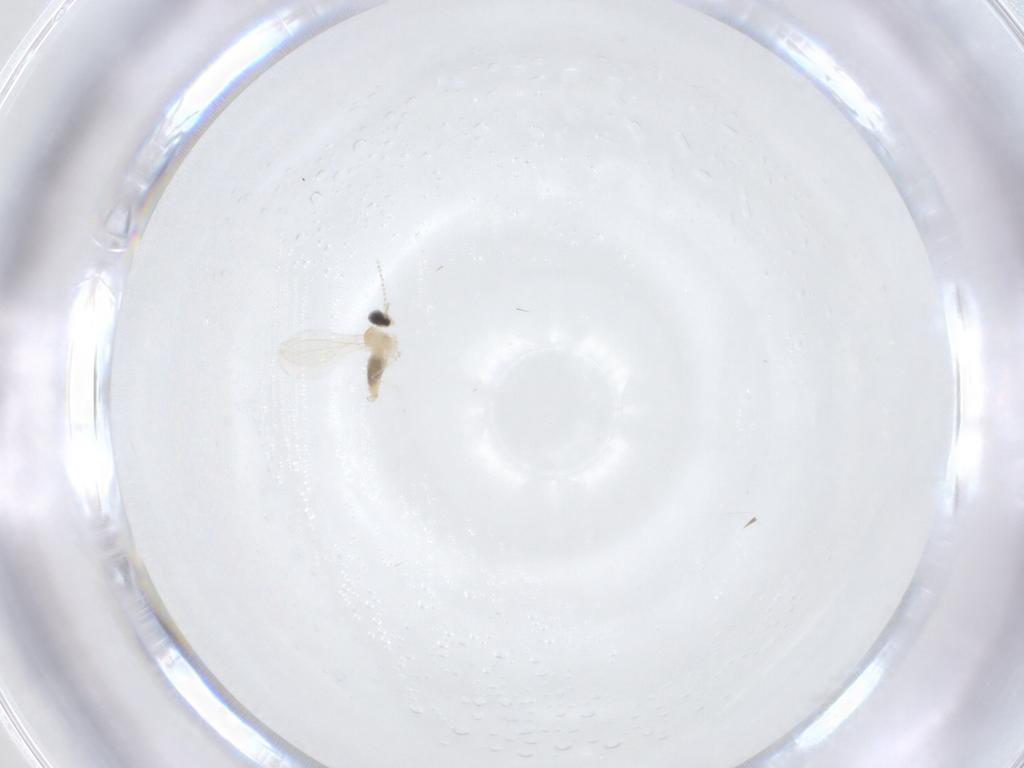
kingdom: Animalia
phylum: Arthropoda
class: Insecta
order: Diptera
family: Cecidomyiidae
